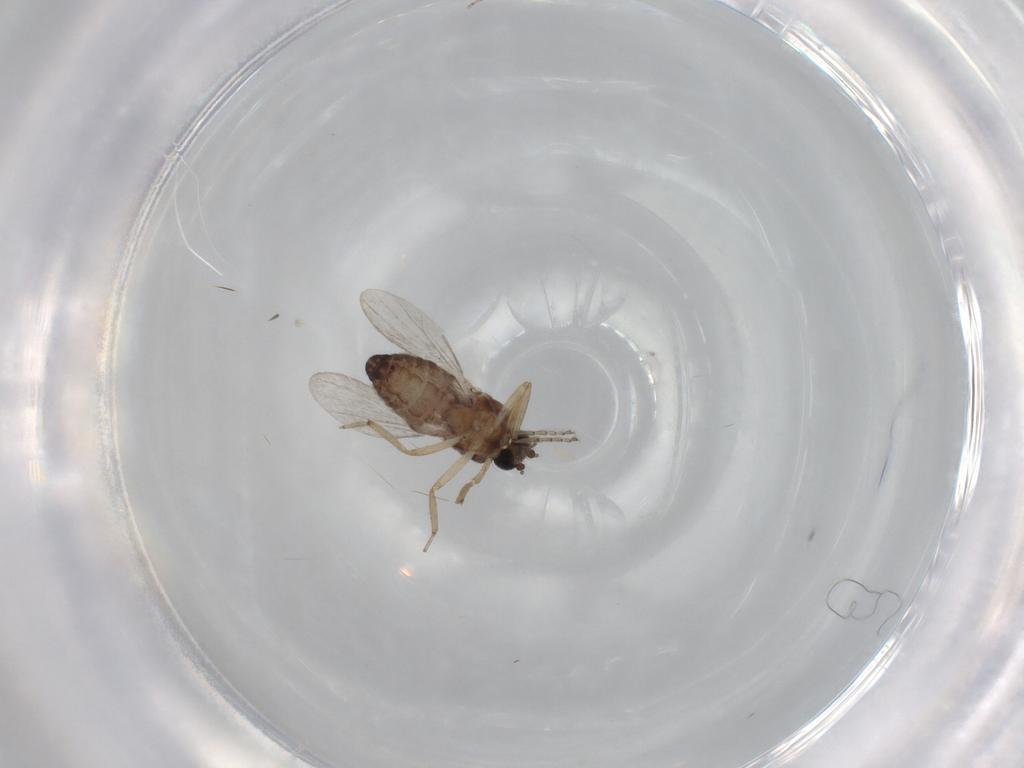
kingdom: Animalia
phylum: Arthropoda
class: Insecta
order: Diptera
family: Ceratopogonidae
